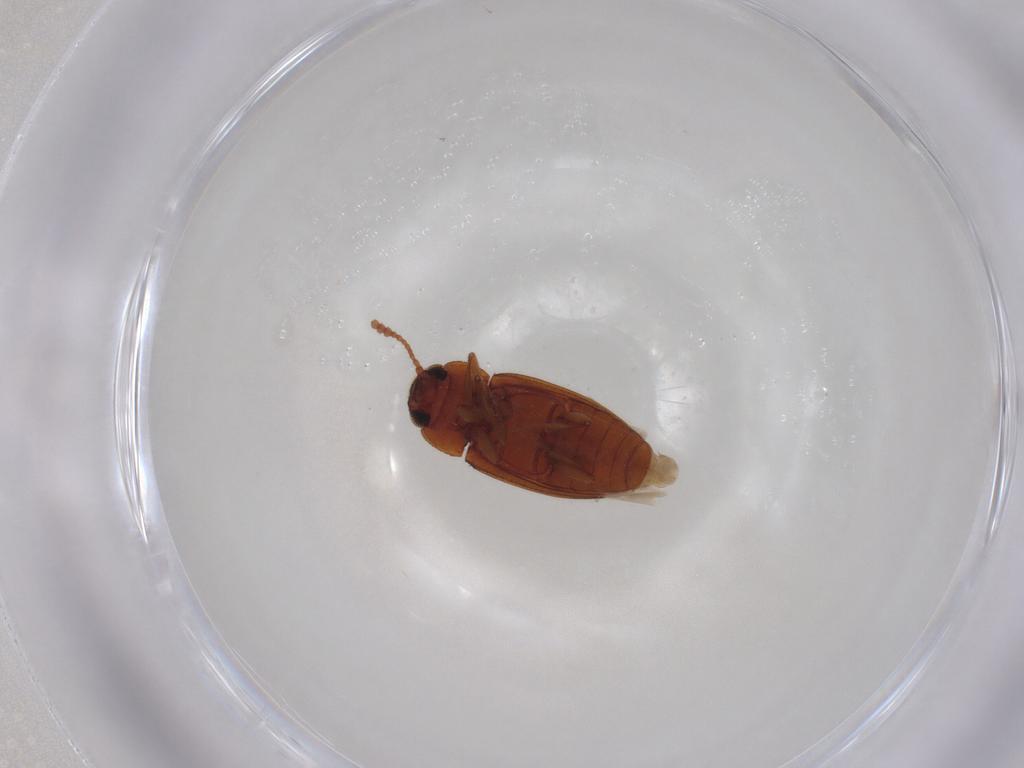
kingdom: Animalia
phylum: Arthropoda
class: Insecta
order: Coleoptera
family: Erotylidae
